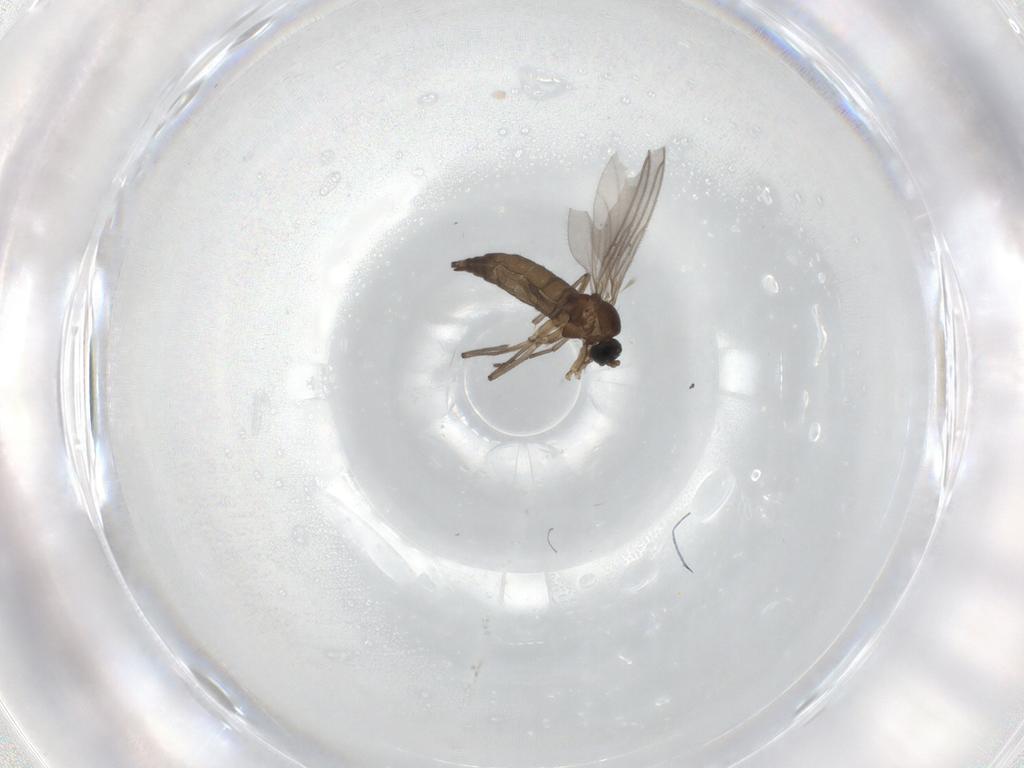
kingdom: Animalia
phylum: Arthropoda
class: Insecta
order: Diptera
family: Sciaridae
